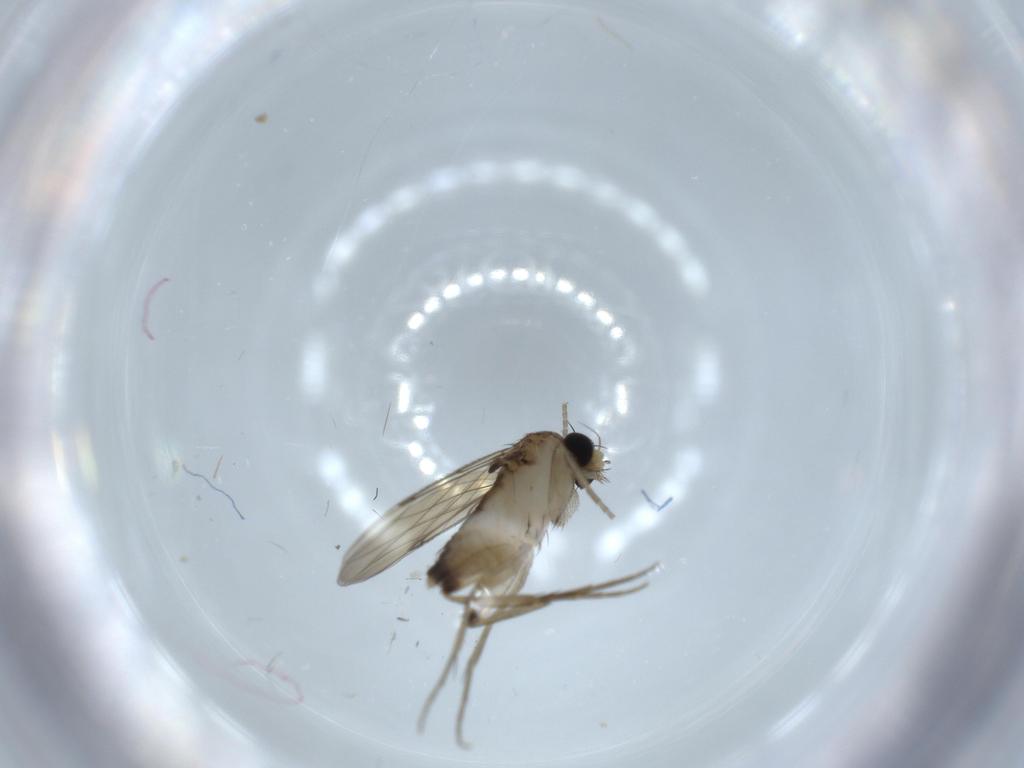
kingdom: Animalia
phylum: Arthropoda
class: Insecta
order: Diptera
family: Phoridae
